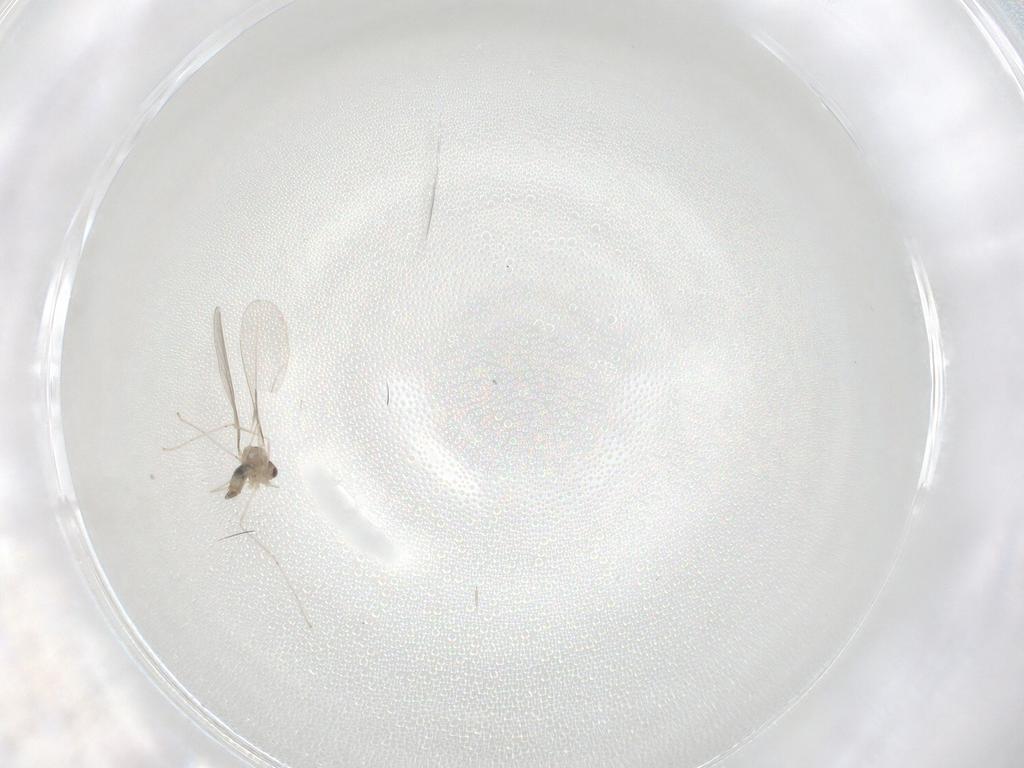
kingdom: Animalia
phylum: Arthropoda
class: Insecta
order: Diptera
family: Cecidomyiidae
